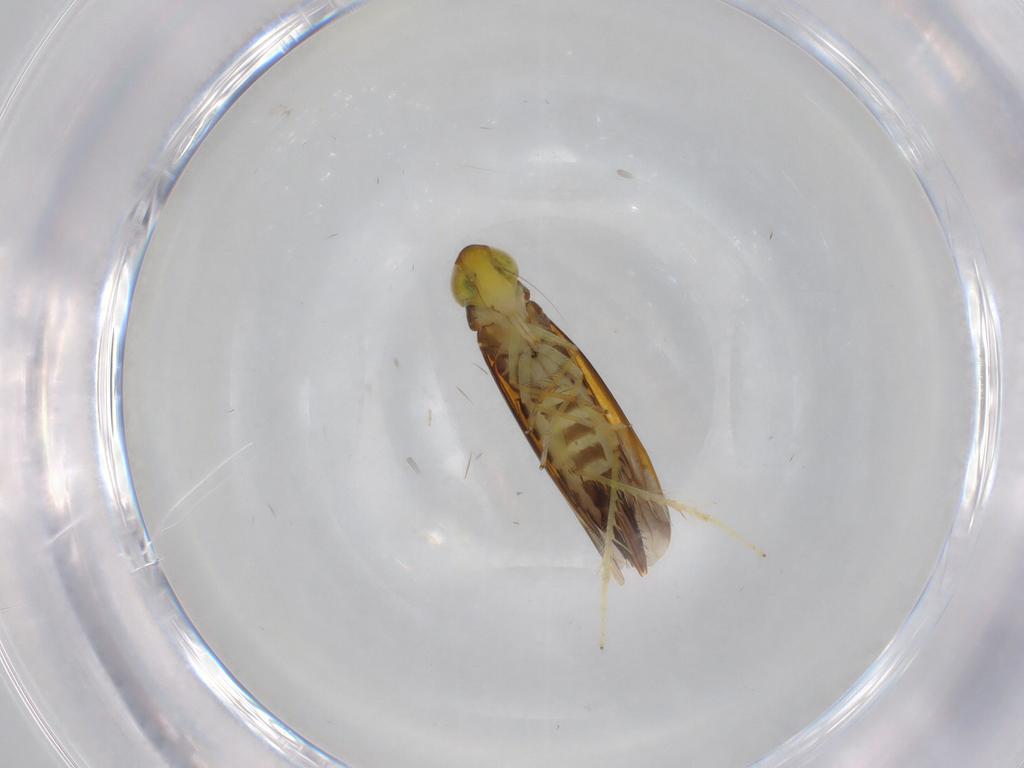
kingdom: Animalia
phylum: Arthropoda
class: Insecta
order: Hemiptera
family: Cicadellidae
